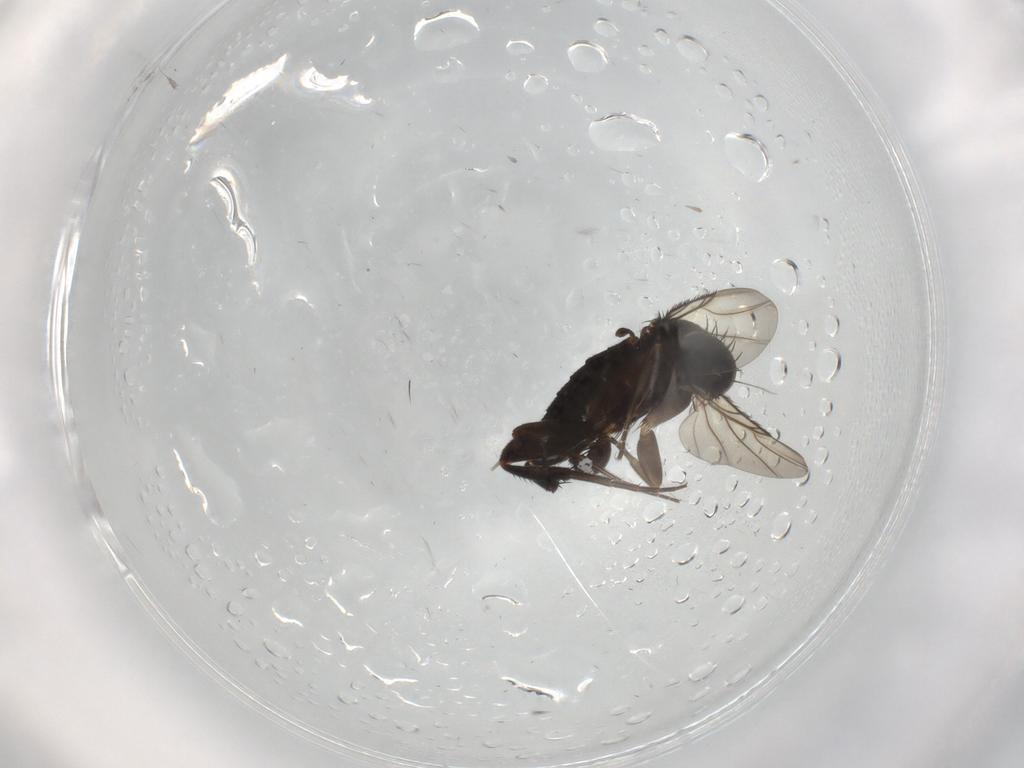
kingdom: Animalia
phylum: Arthropoda
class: Insecta
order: Diptera
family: Phoridae
